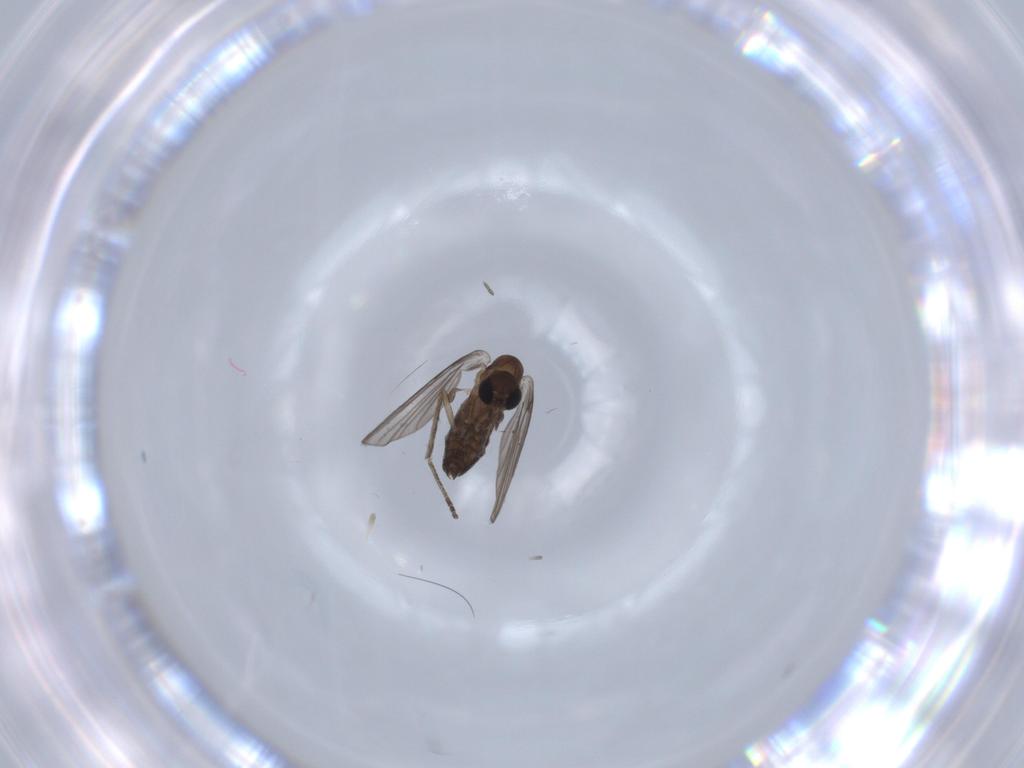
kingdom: Animalia
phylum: Arthropoda
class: Insecta
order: Diptera
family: Psychodidae
